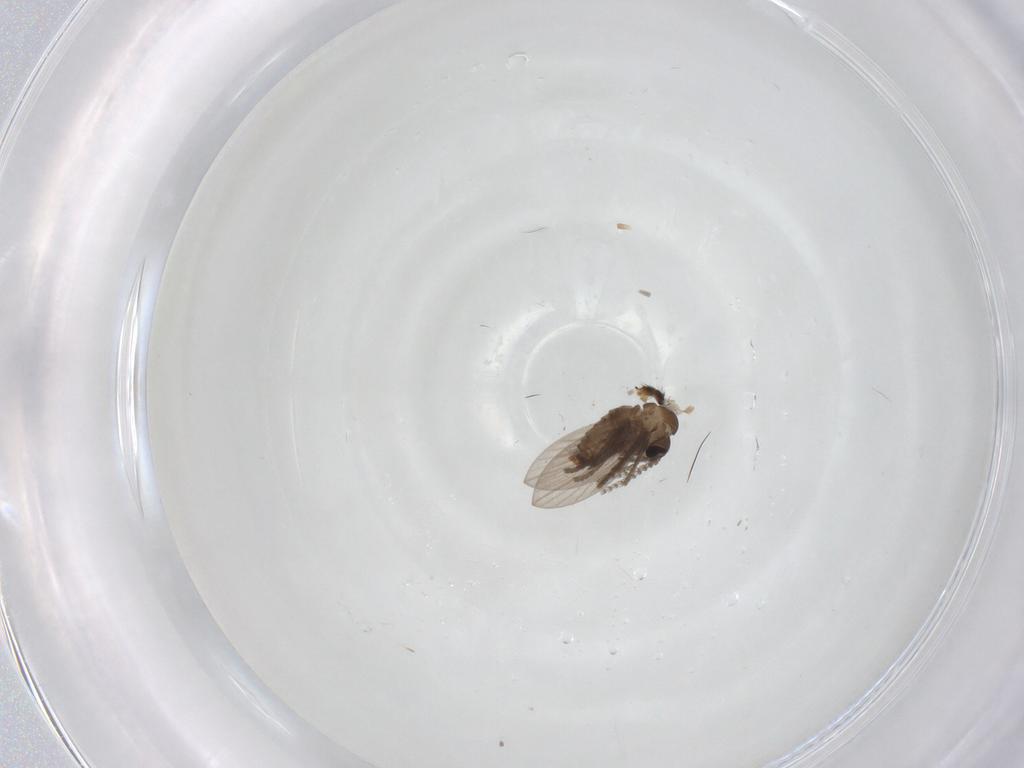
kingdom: Animalia
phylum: Arthropoda
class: Insecta
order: Diptera
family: Psychodidae
